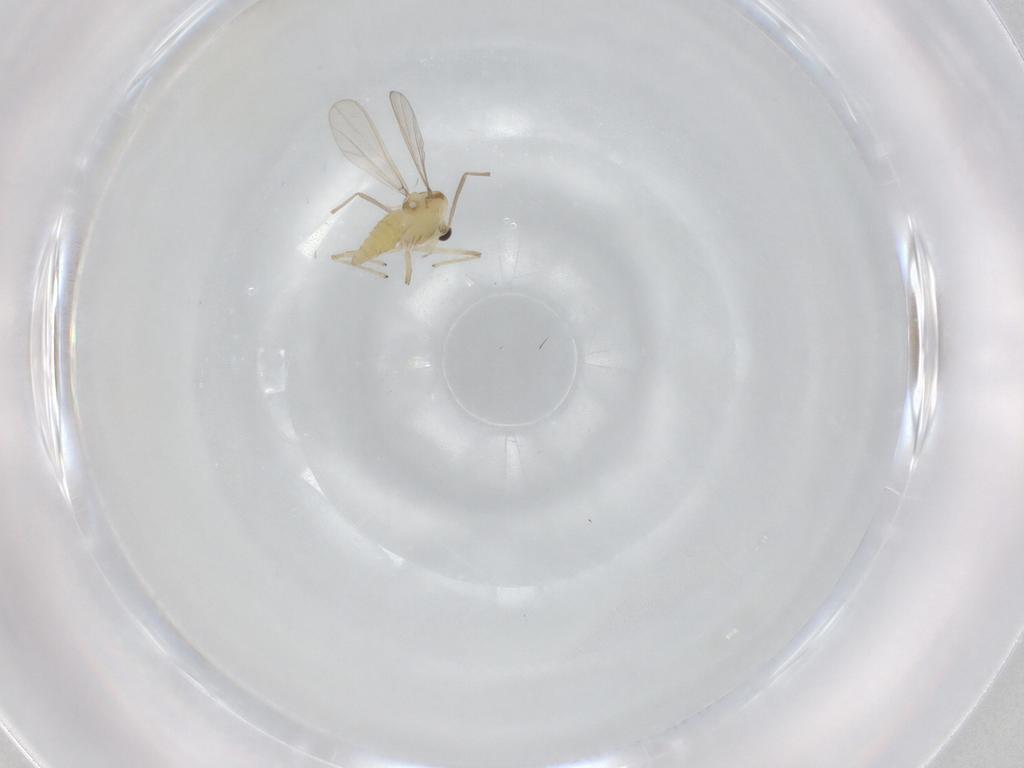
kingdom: Animalia
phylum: Arthropoda
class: Insecta
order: Diptera
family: Chironomidae
